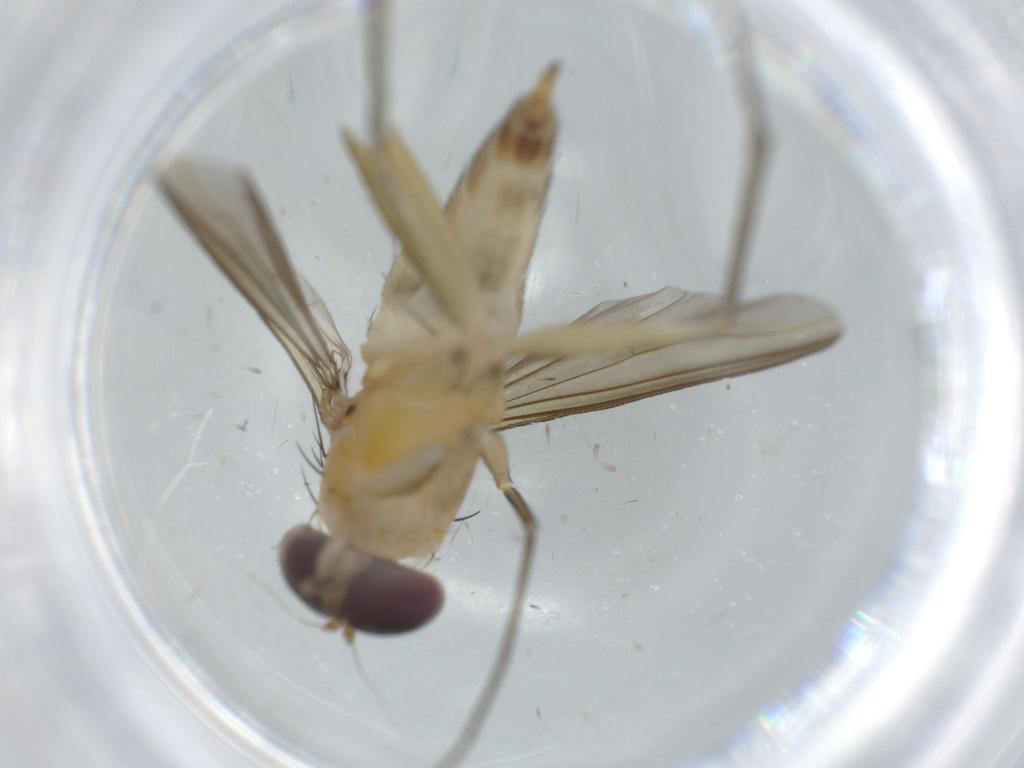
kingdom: Animalia
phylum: Arthropoda
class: Insecta
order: Diptera
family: Dolichopodidae
